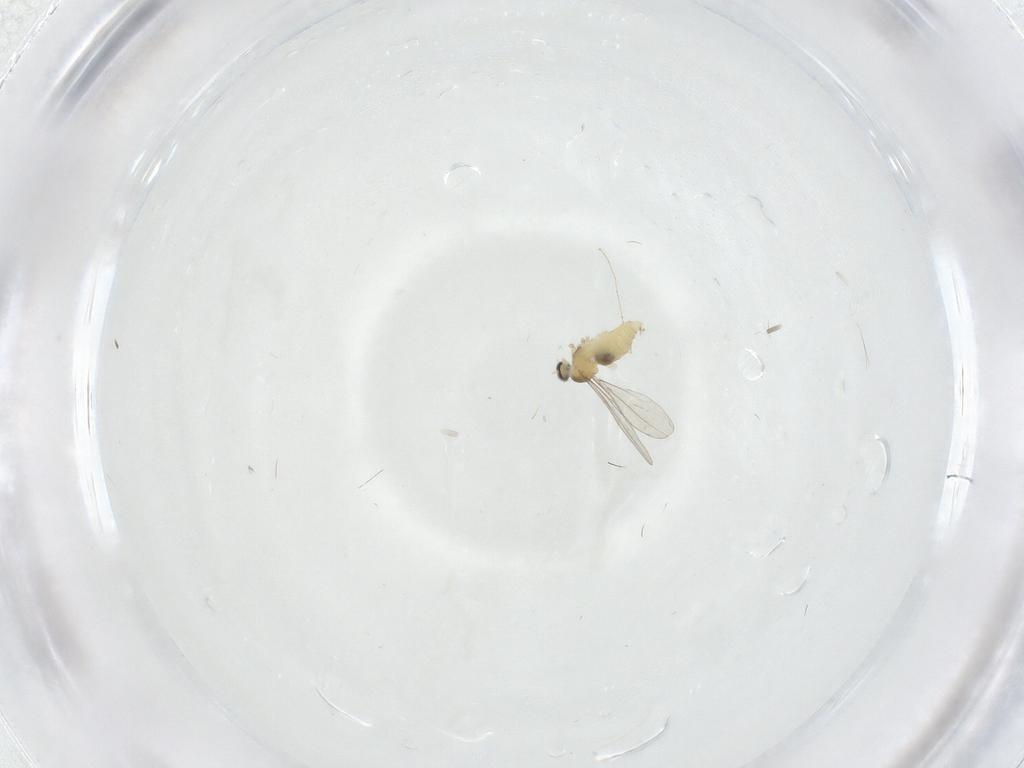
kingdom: Animalia
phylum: Arthropoda
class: Insecta
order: Diptera
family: Cecidomyiidae
